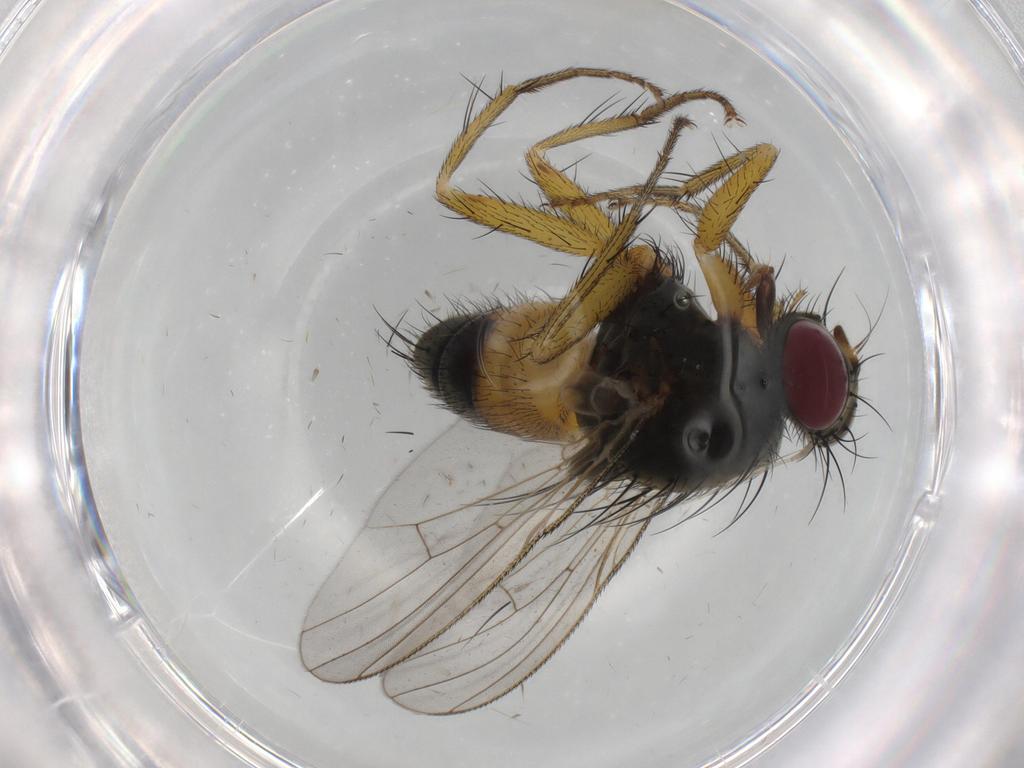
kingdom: Animalia
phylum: Arthropoda
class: Insecta
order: Diptera
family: Muscidae
